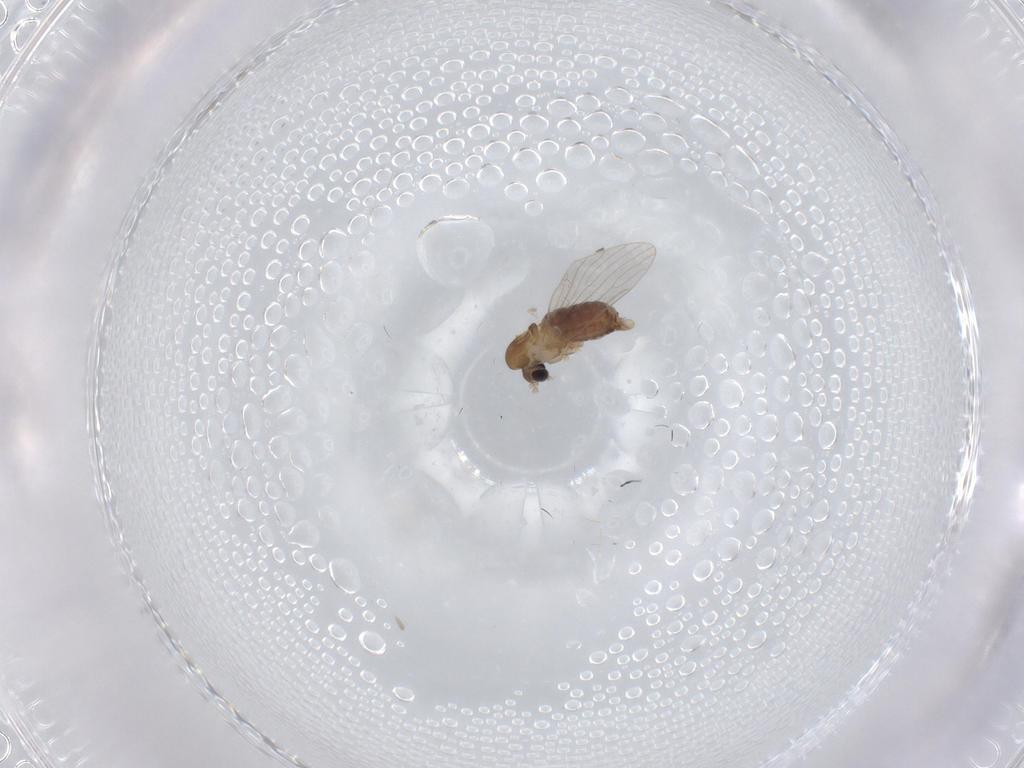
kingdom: Animalia
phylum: Arthropoda
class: Insecta
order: Diptera
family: Cecidomyiidae
